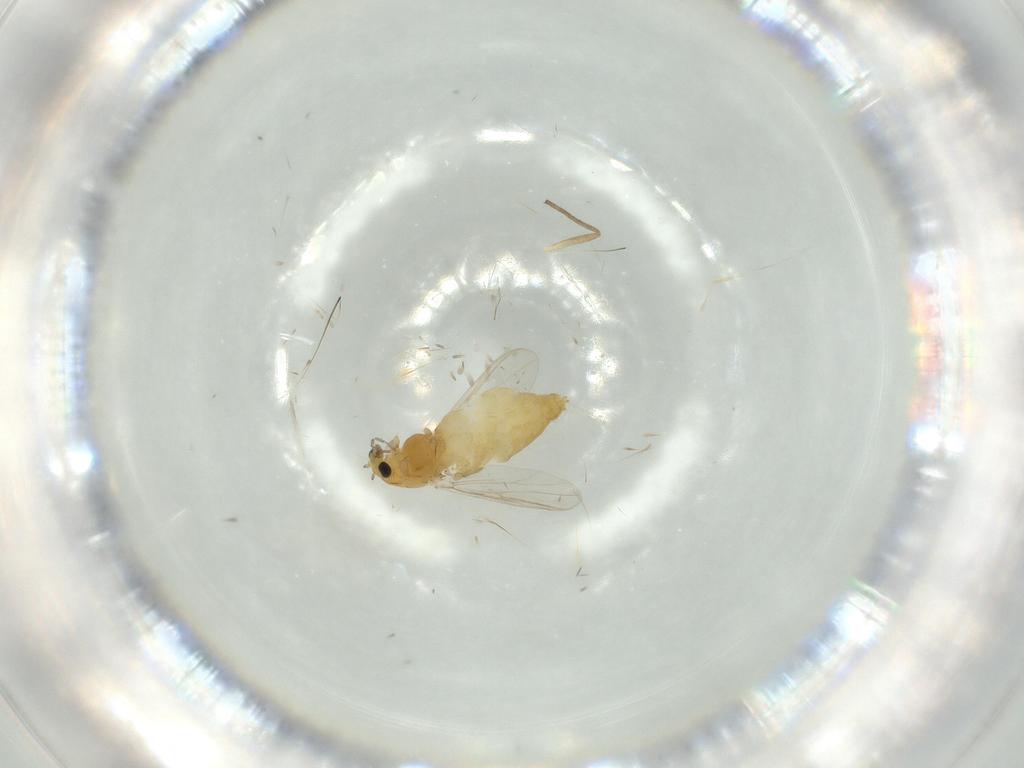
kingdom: Animalia
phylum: Arthropoda
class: Insecta
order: Diptera
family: Chironomidae
